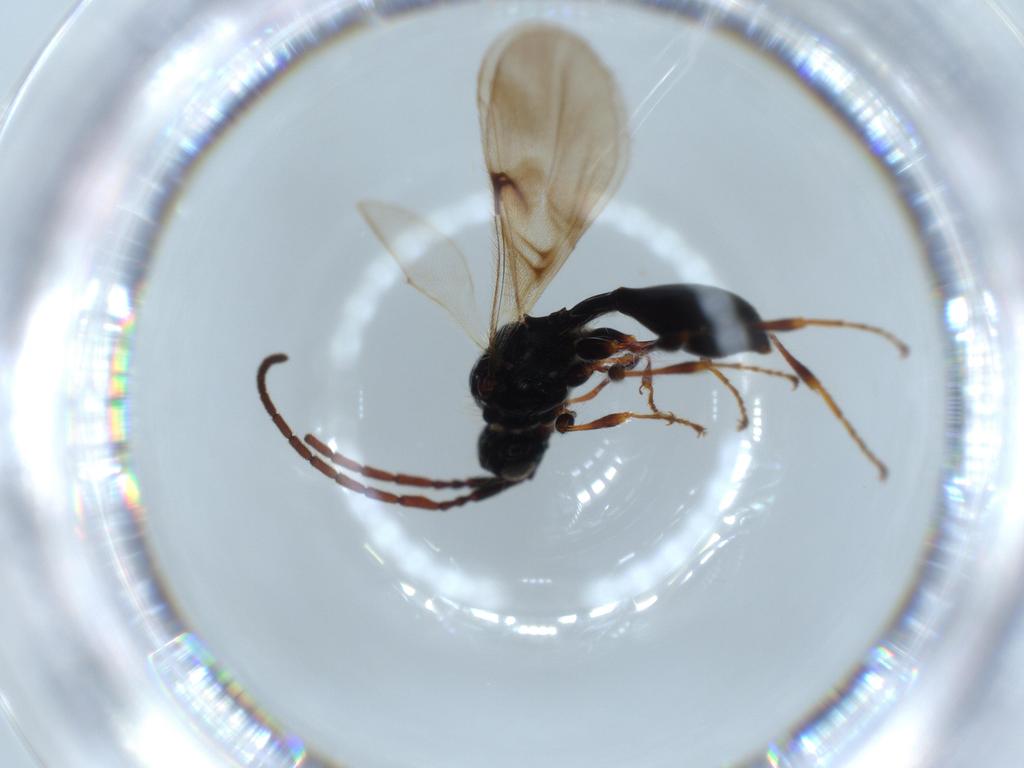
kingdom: Animalia
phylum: Arthropoda
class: Insecta
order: Hymenoptera
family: Diapriidae
